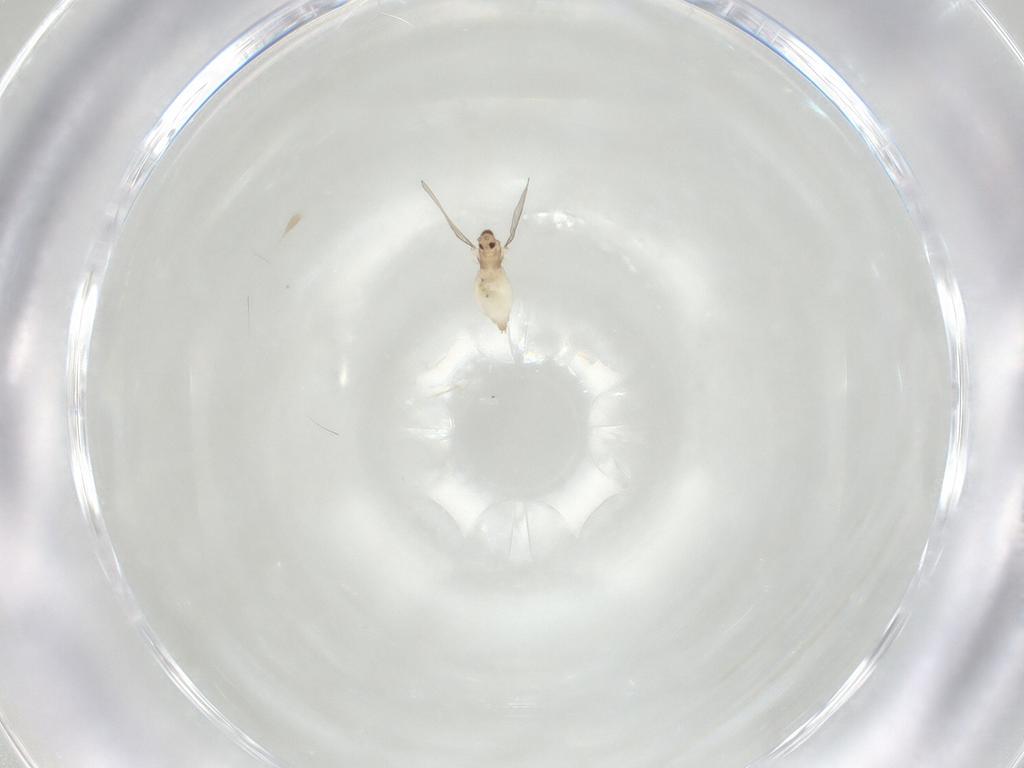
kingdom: Animalia
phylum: Arthropoda
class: Insecta
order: Diptera
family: Cecidomyiidae
